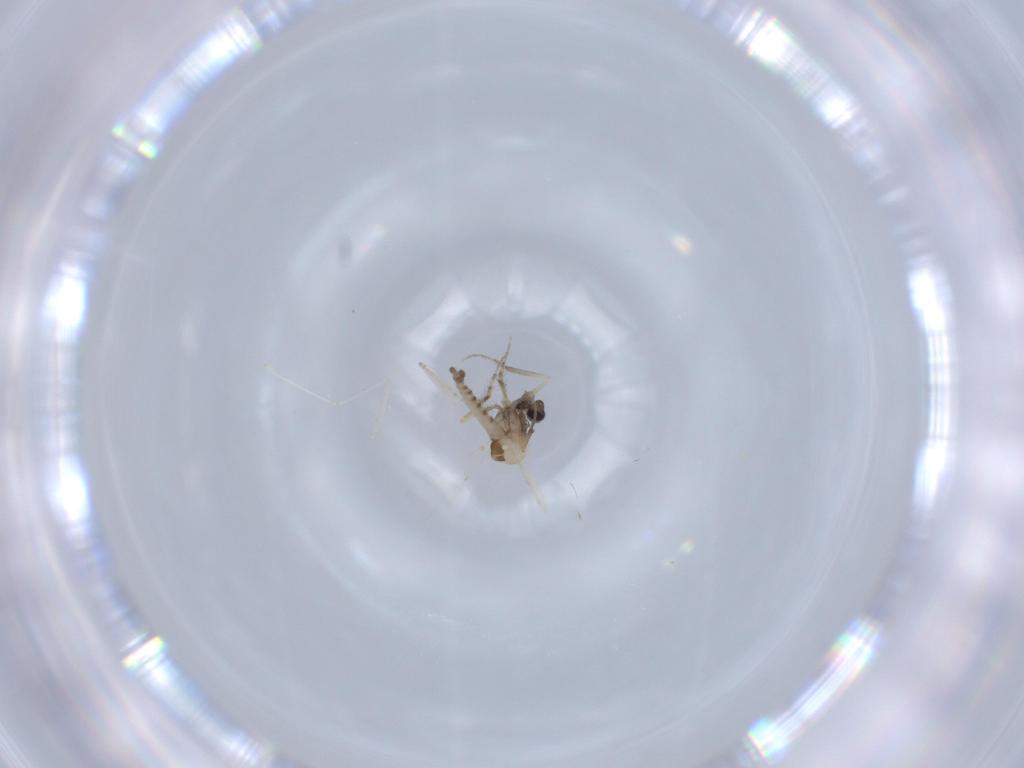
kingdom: Animalia
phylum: Arthropoda
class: Insecta
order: Diptera
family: Cecidomyiidae
